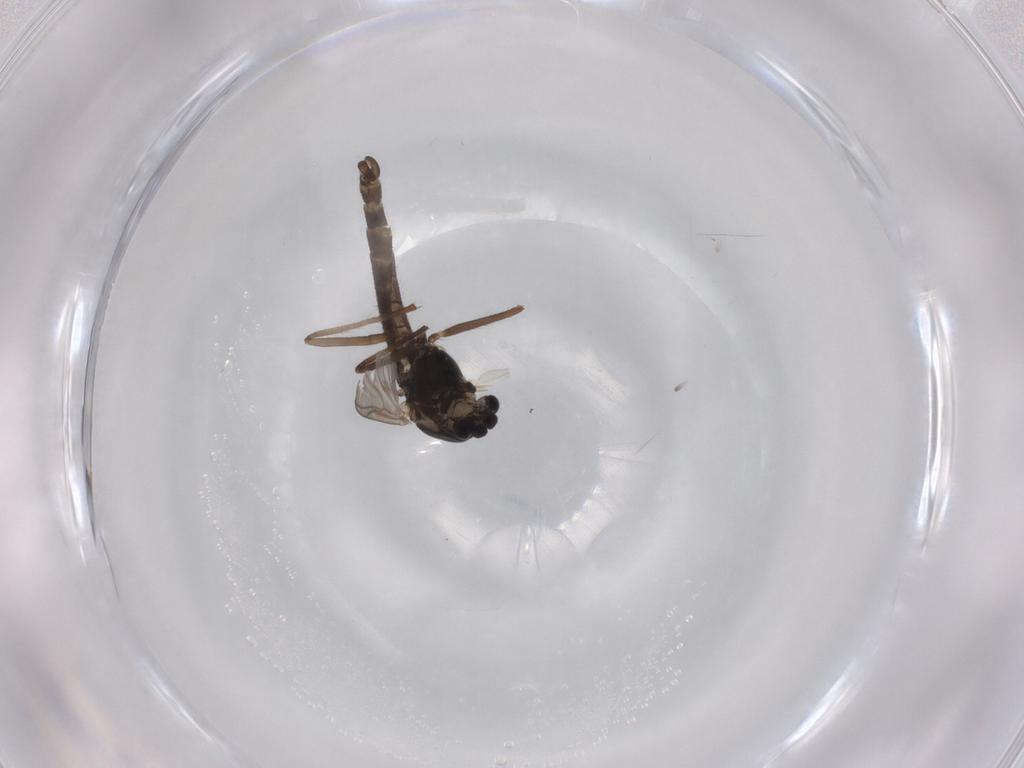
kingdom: Animalia
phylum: Arthropoda
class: Insecta
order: Diptera
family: Chironomidae
